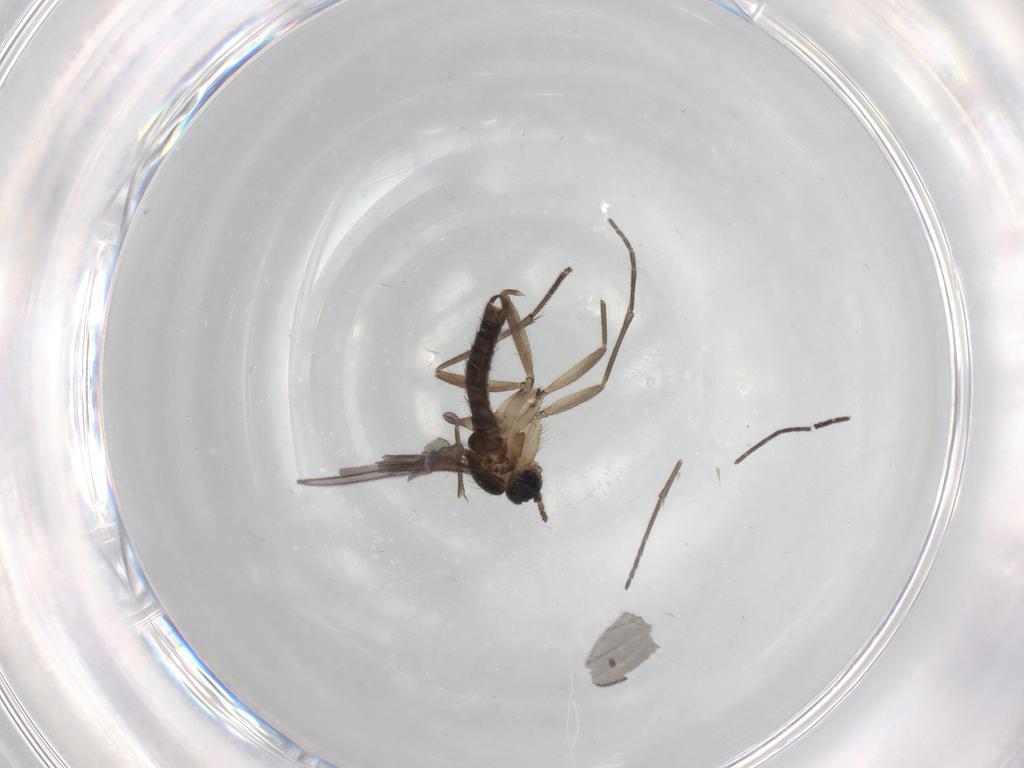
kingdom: Animalia
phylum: Arthropoda
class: Insecta
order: Diptera
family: Sciaridae
